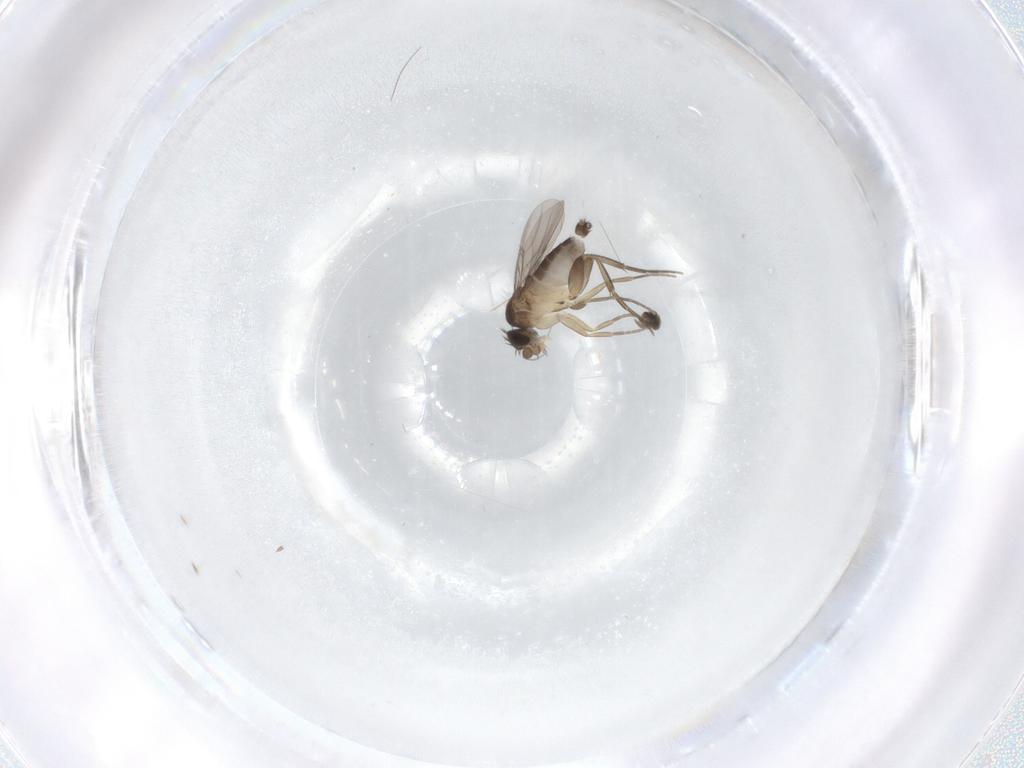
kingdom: Animalia
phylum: Arthropoda
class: Insecta
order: Diptera
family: Phoridae
